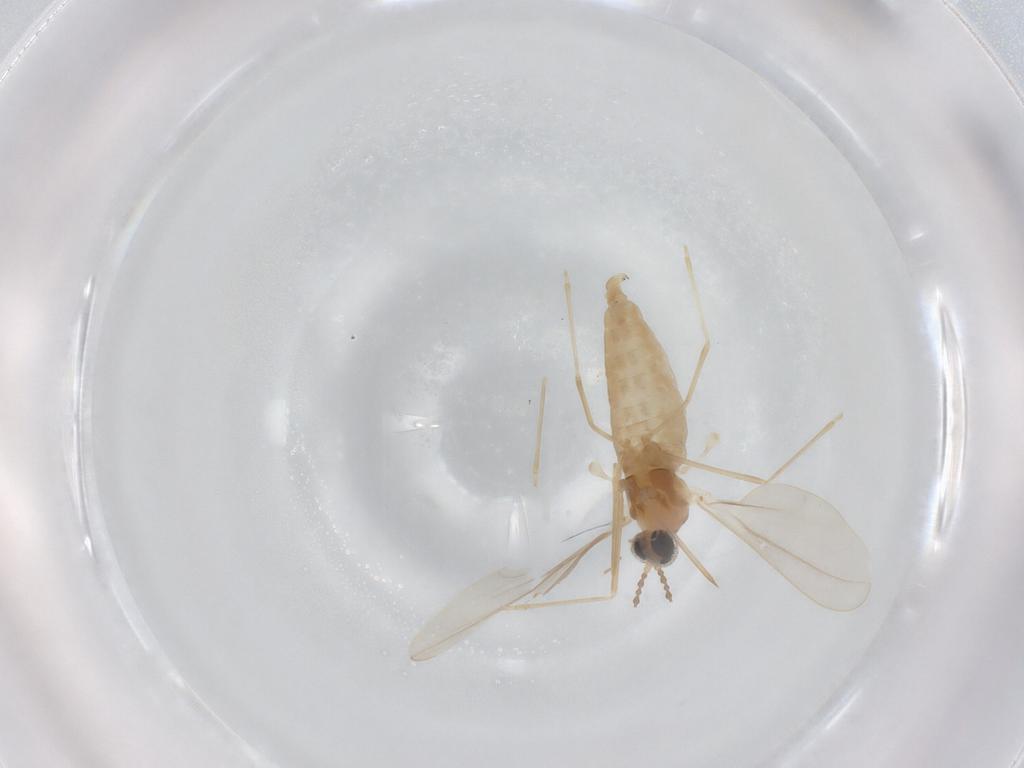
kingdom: Animalia
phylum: Arthropoda
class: Insecta
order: Diptera
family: Cecidomyiidae
